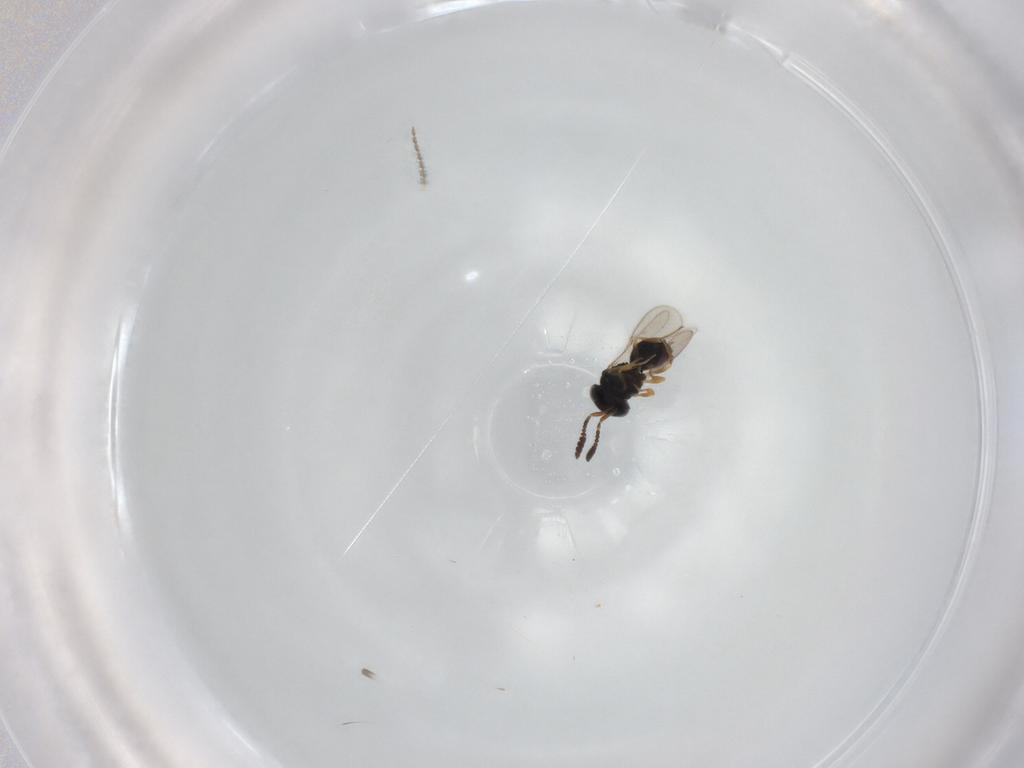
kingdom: Animalia
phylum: Arthropoda
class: Insecta
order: Hymenoptera
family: Scelionidae
